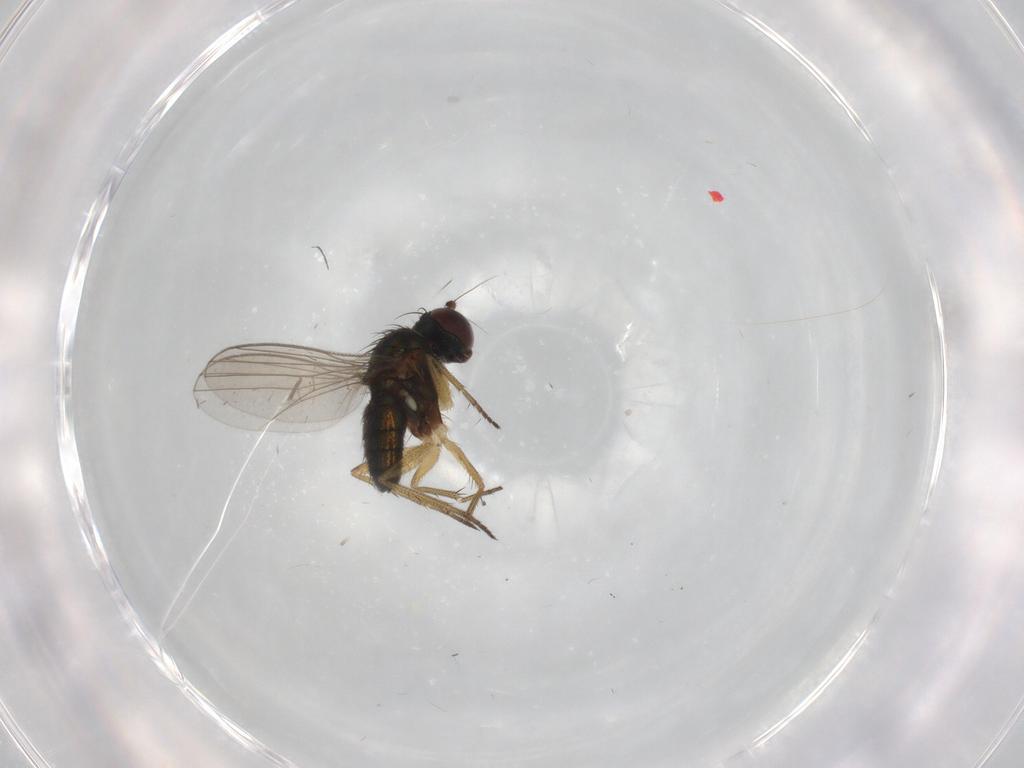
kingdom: Animalia
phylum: Arthropoda
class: Insecta
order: Diptera
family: Dolichopodidae
